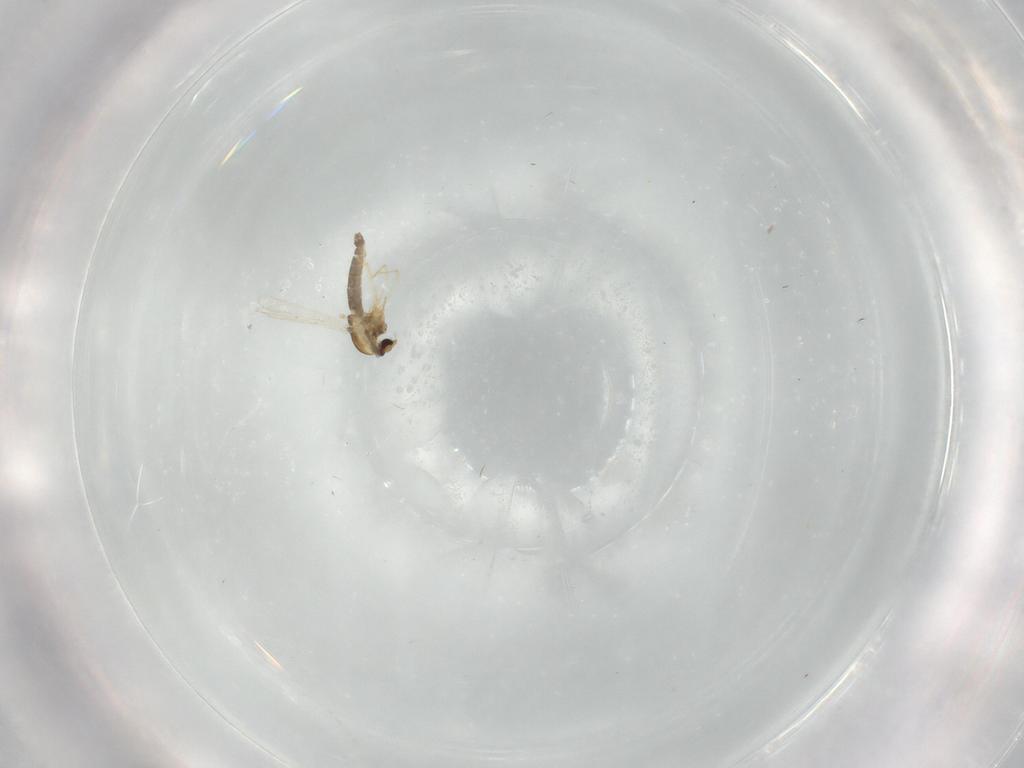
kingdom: Animalia
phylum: Arthropoda
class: Insecta
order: Diptera
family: Chironomidae
